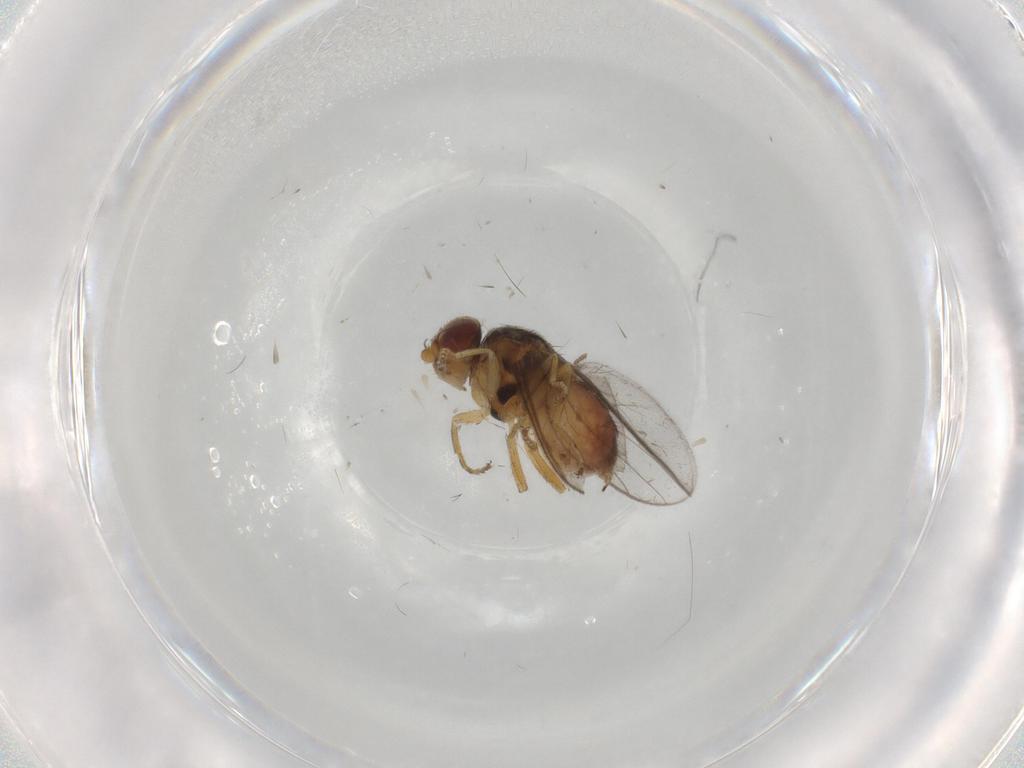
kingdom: Animalia
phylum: Arthropoda
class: Insecta
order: Diptera
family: Chloropidae
